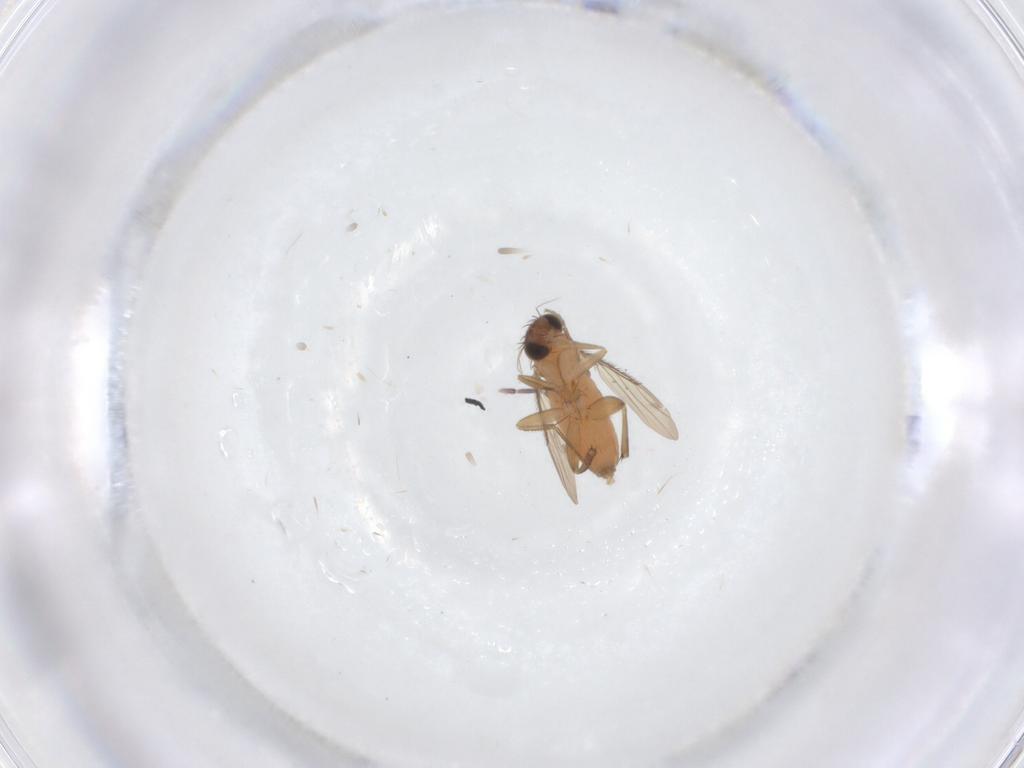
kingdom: Animalia
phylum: Arthropoda
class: Insecta
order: Diptera
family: Phoridae
